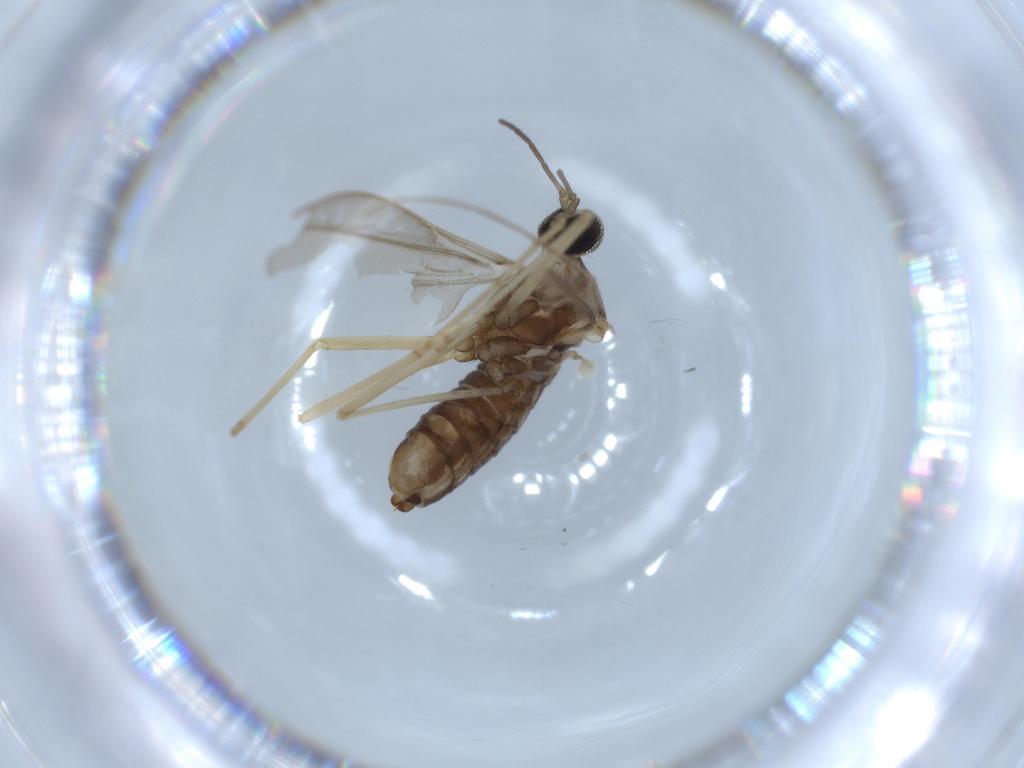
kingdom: Animalia
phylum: Arthropoda
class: Insecta
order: Diptera
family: Cecidomyiidae
